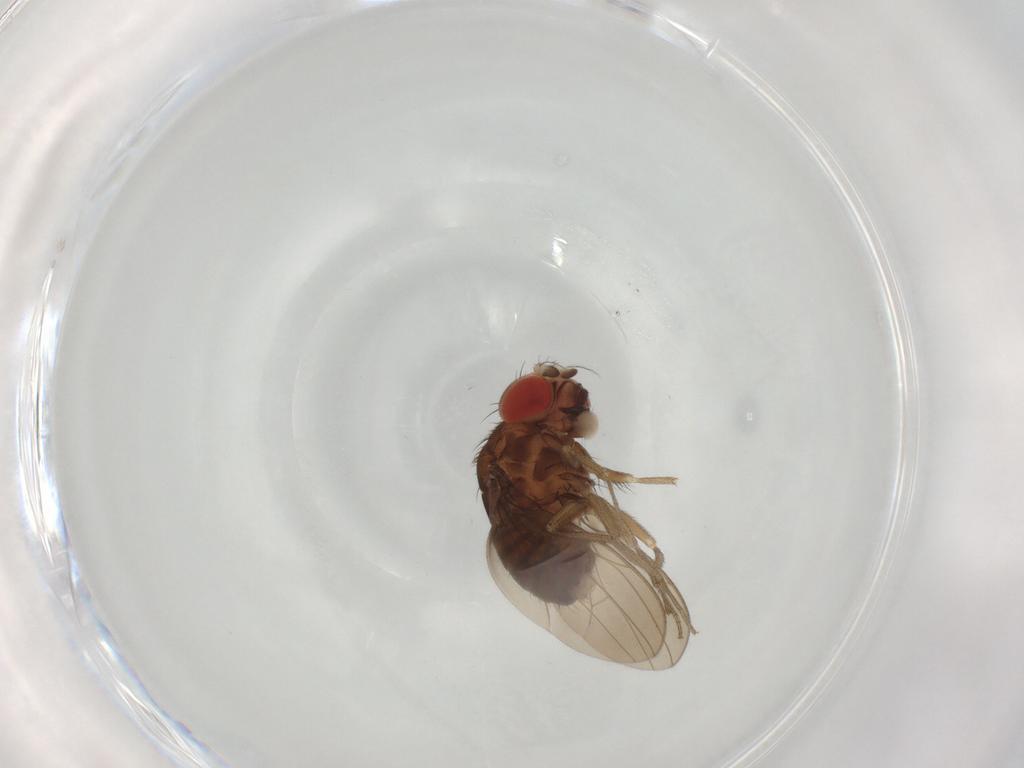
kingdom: Animalia
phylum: Arthropoda
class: Insecta
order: Diptera
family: Drosophilidae
